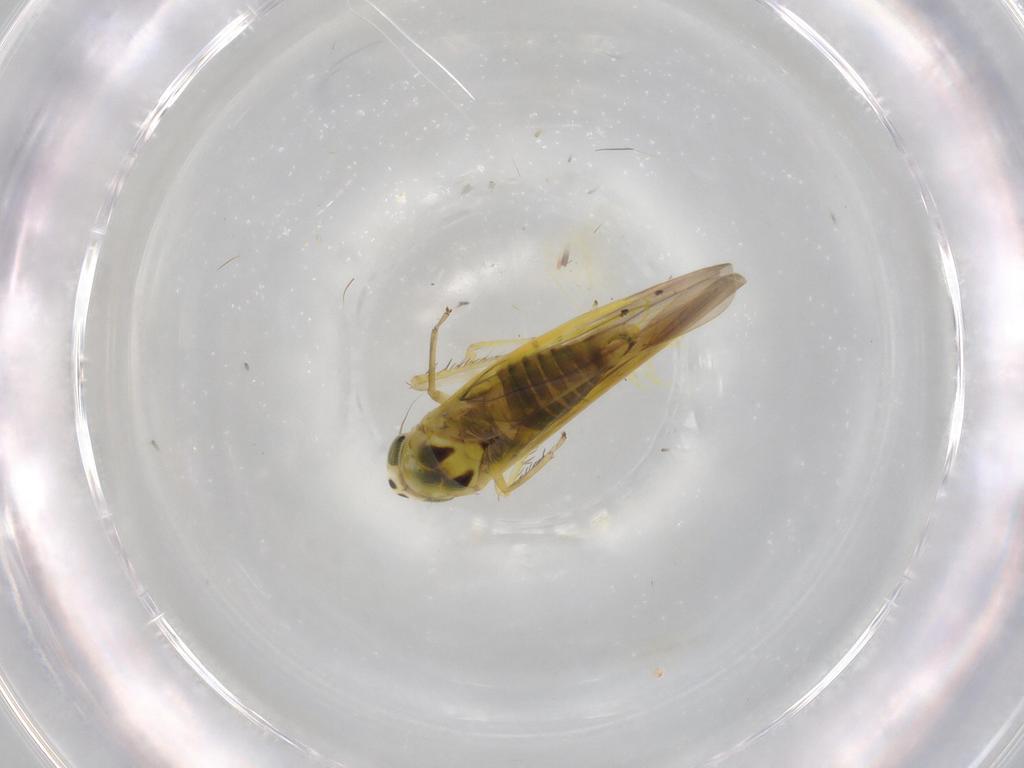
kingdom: Animalia
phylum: Arthropoda
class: Insecta
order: Hemiptera
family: Aleyrodidae
